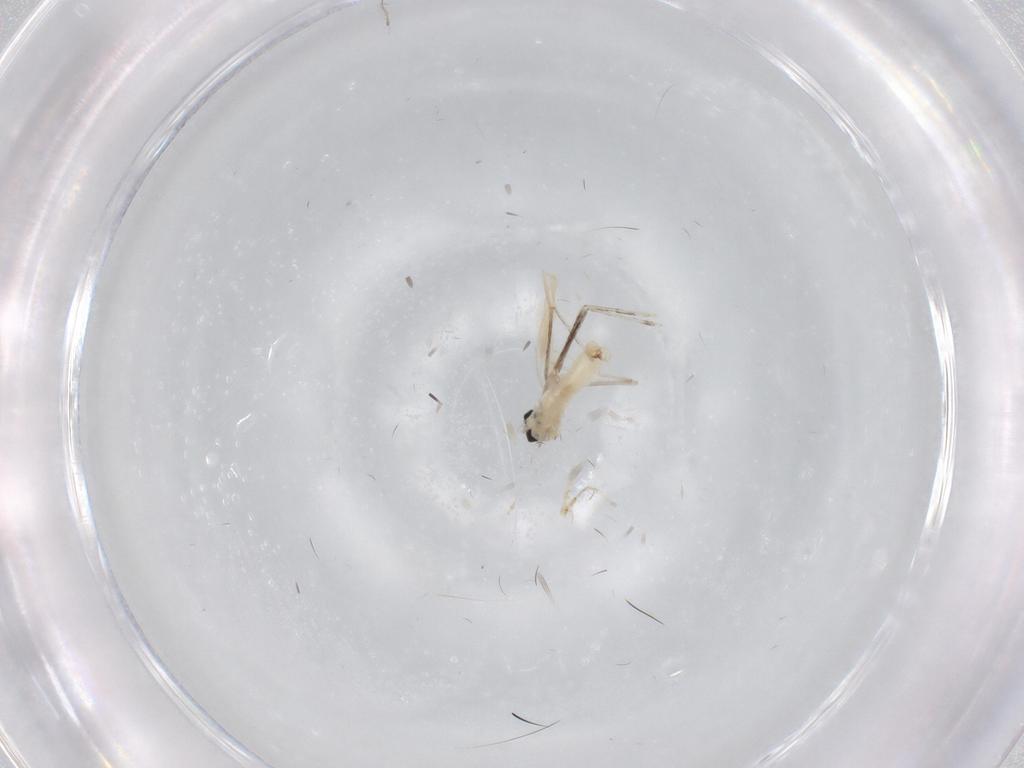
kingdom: Animalia
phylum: Arthropoda
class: Insecta
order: Diptera
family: Cecidomyiidae
